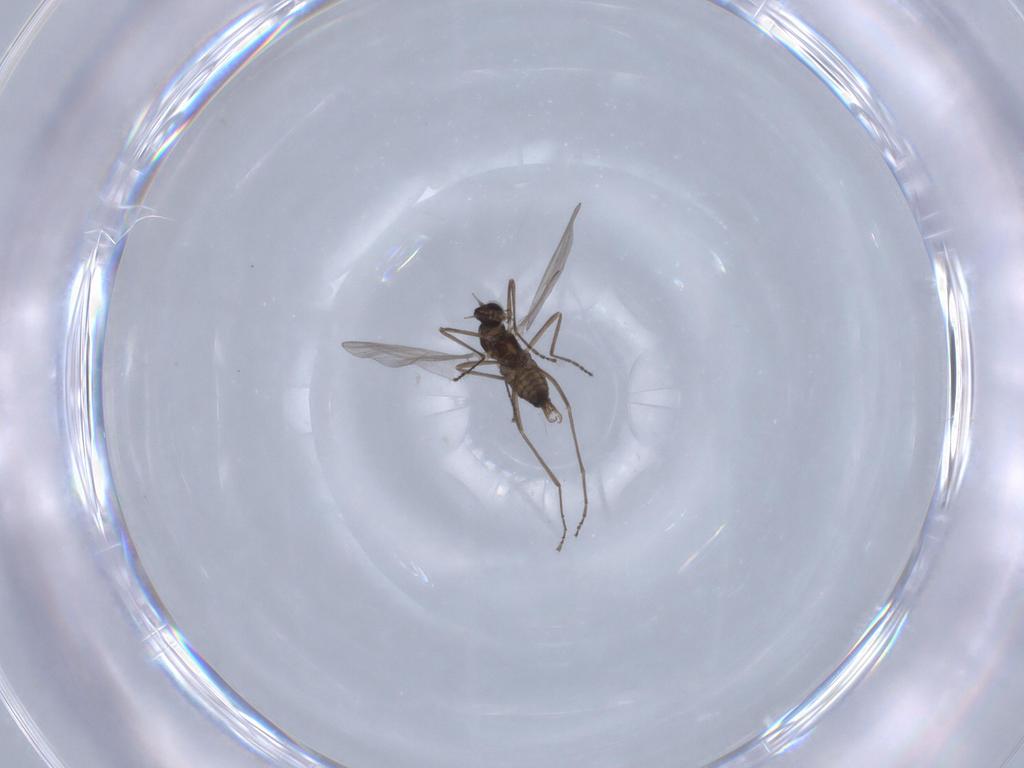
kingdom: Animalia
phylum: Arthropoda
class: Insecta
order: Diptera
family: Cecidomyiidae
